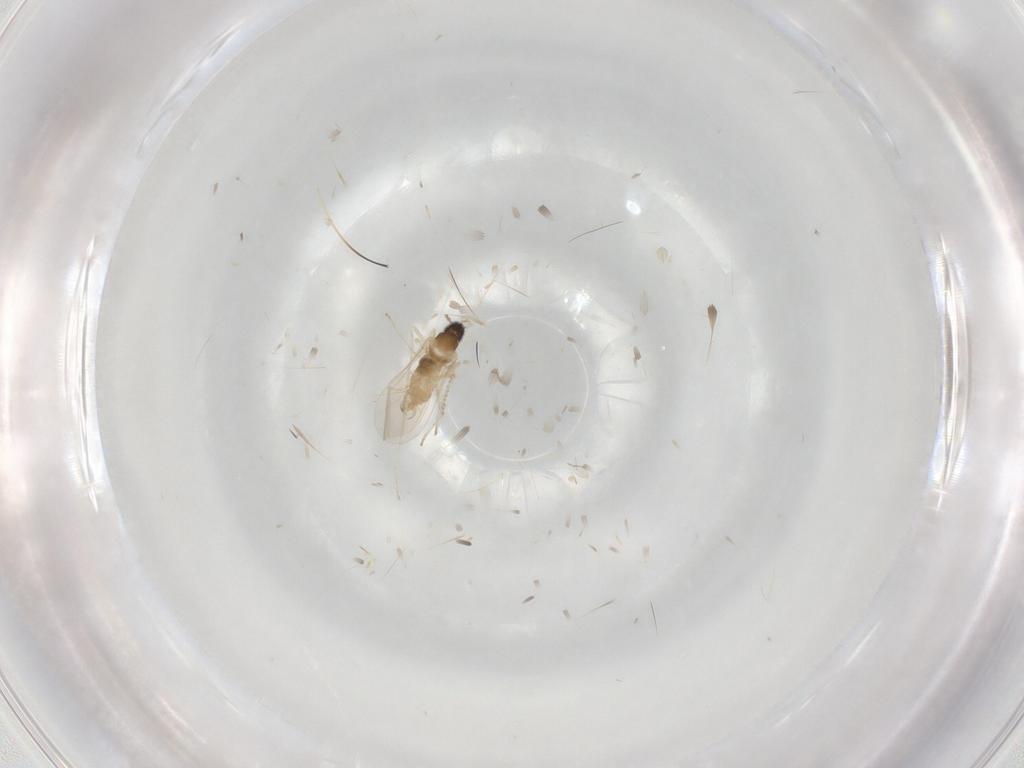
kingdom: Animalia
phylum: Arthropoda
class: Insecta
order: Diptera
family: Cecidomyiidae
